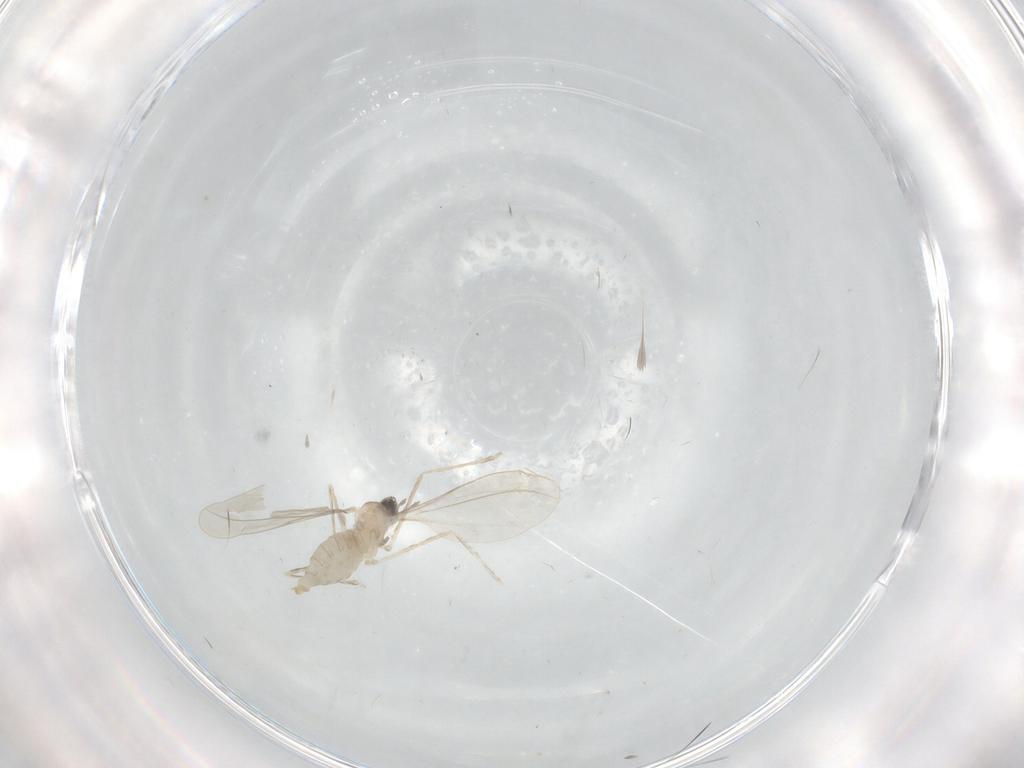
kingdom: Animalia
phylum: Arthropoda
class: Insecta
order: Diptera
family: Cecidomyiidae
